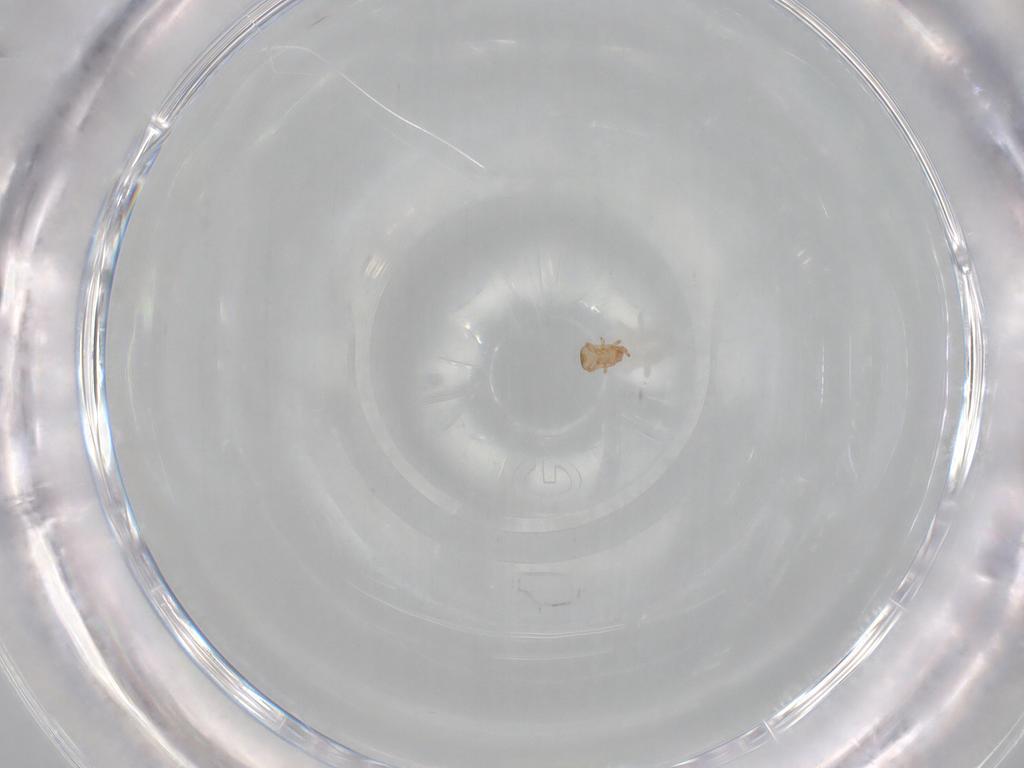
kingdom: Animalia
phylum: Arthropoda
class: Arachnida
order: Mesostigmata
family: Ascidae
